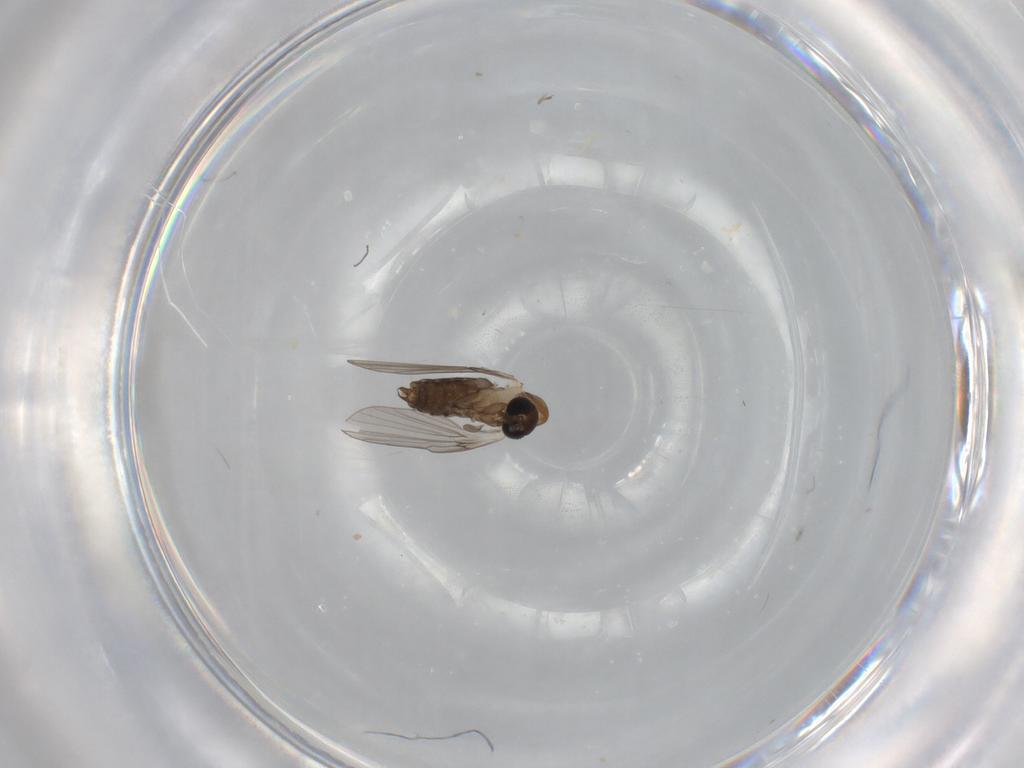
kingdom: Animalia
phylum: Arthropoda
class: Insecta
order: Diptera
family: Psychodidae
